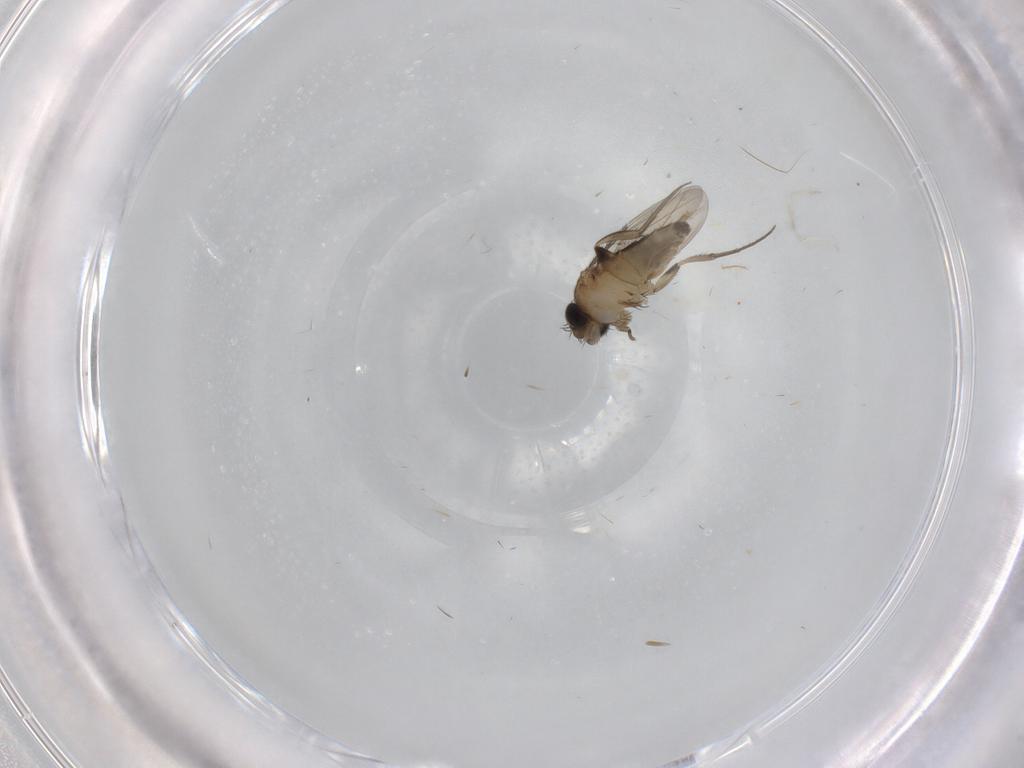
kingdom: Animalia
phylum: Arthropoda
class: Insecta
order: Diptera
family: Phoridae
